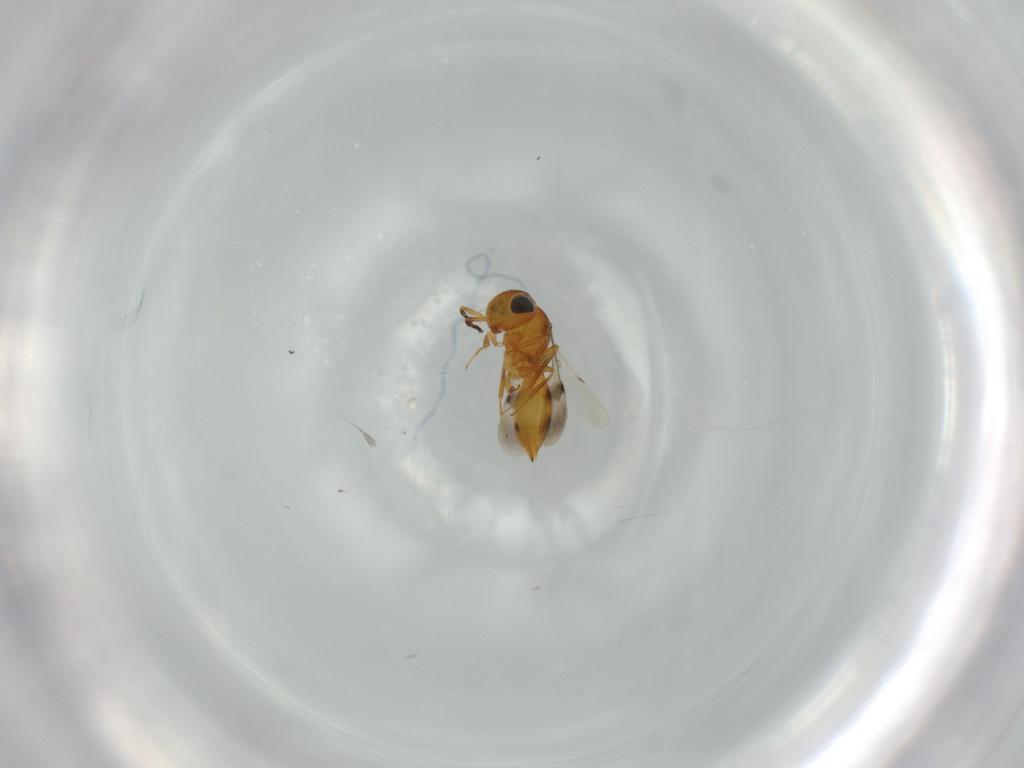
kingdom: Animalia
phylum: Arthropoda
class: Insecta
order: Hymenoptera
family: Scelionidae
